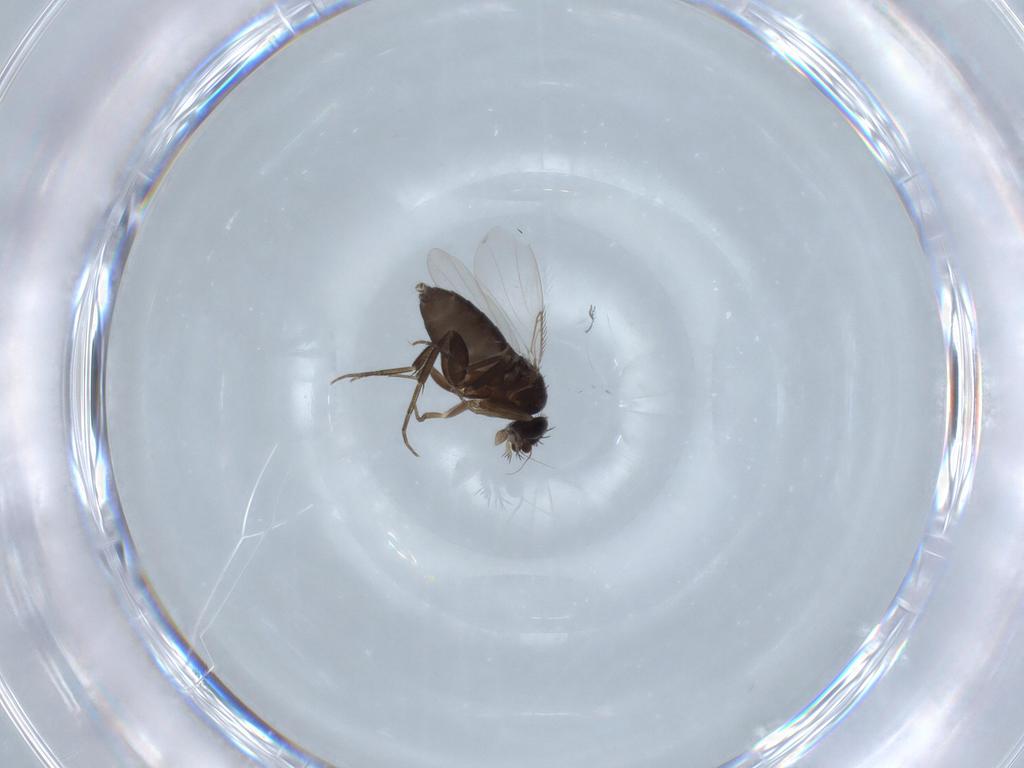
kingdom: Animalia
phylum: Arthropoda
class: Insecta
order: Diptera
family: Phoridae
